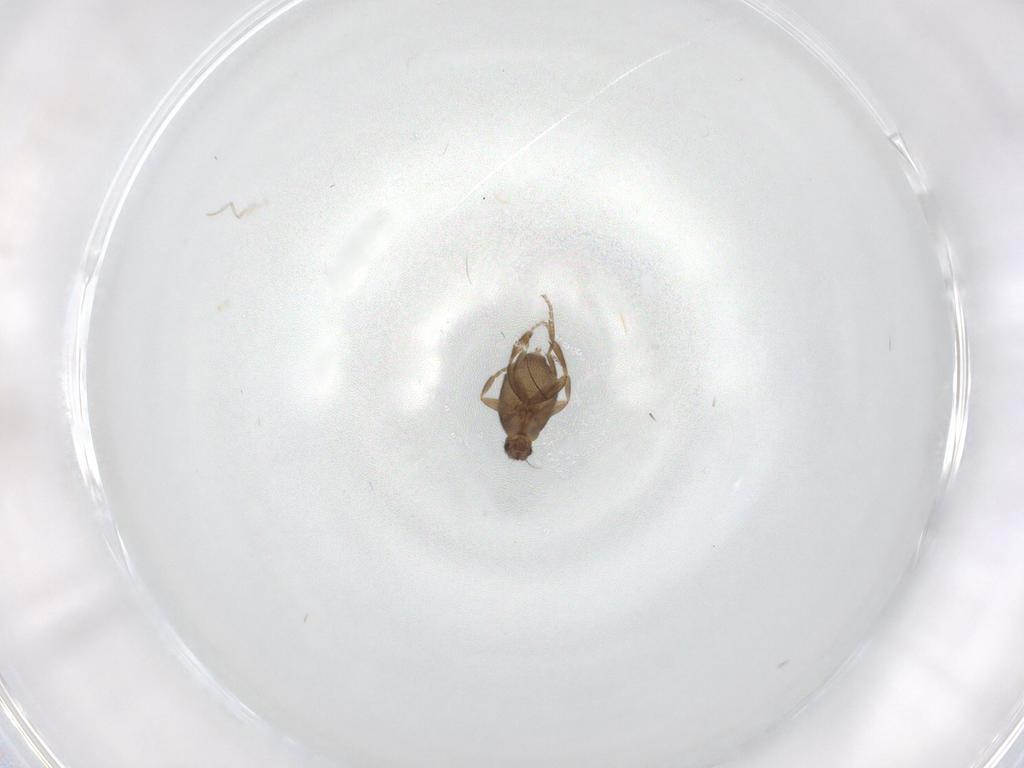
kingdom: Animalia
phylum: Arthropoda
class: Insecta
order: Diptera
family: Cecidomyiidae
